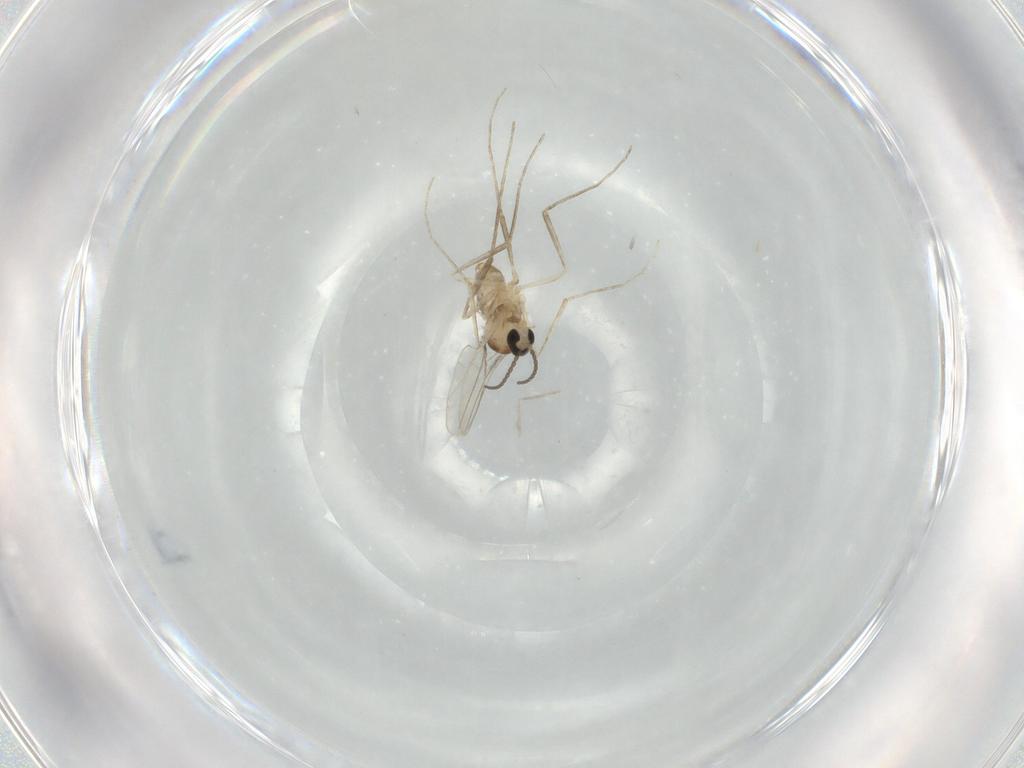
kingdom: Animalia
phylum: Arthropoda
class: Insecta
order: Diptera
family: Cecidomyiidae
